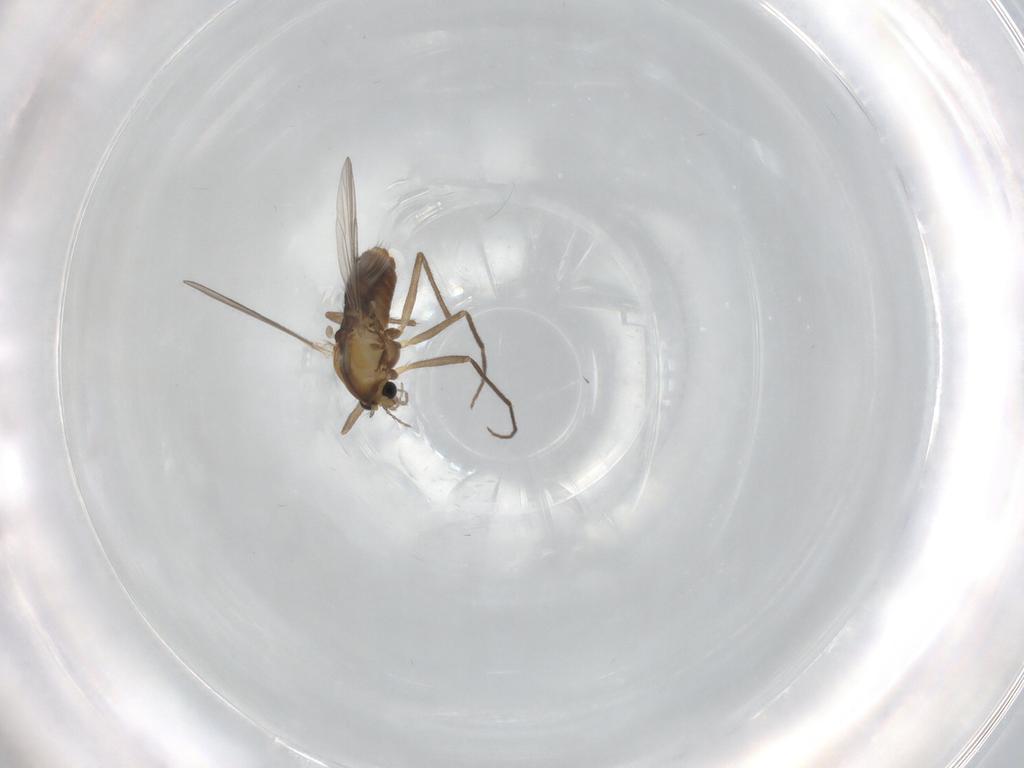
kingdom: Animalia
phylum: Arthropoda
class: Insecta
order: Diptera
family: Chironomidae
